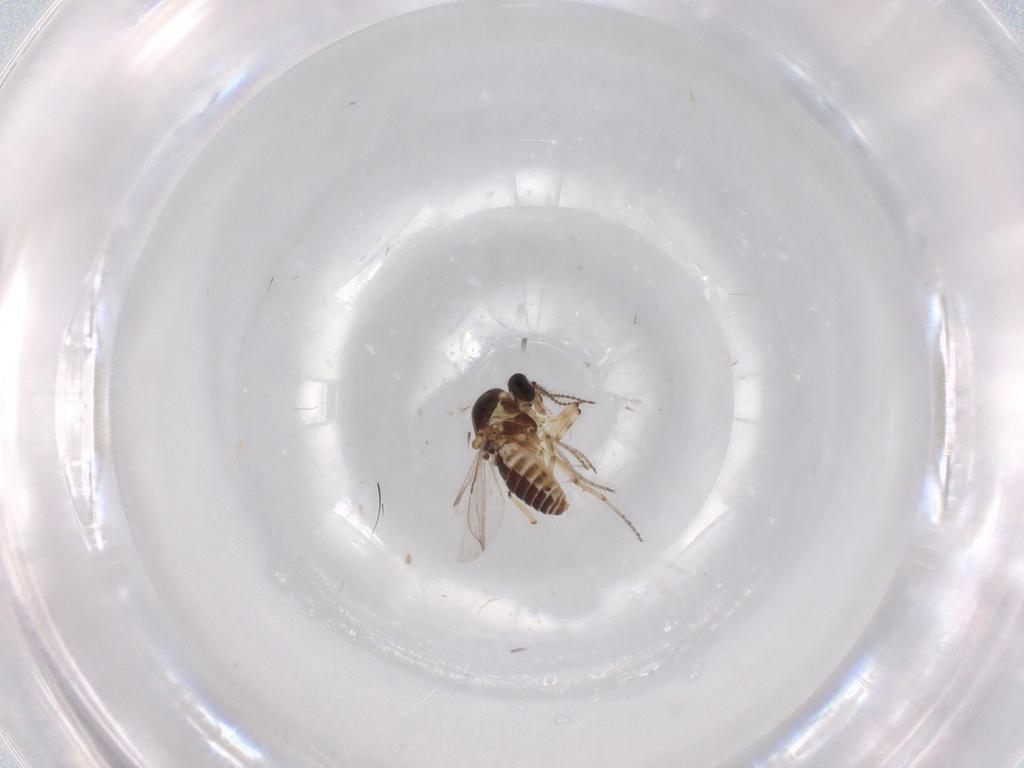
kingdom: Animalia
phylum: Arthropoda
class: Insecta
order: Diptera
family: Ceratopogonidae
